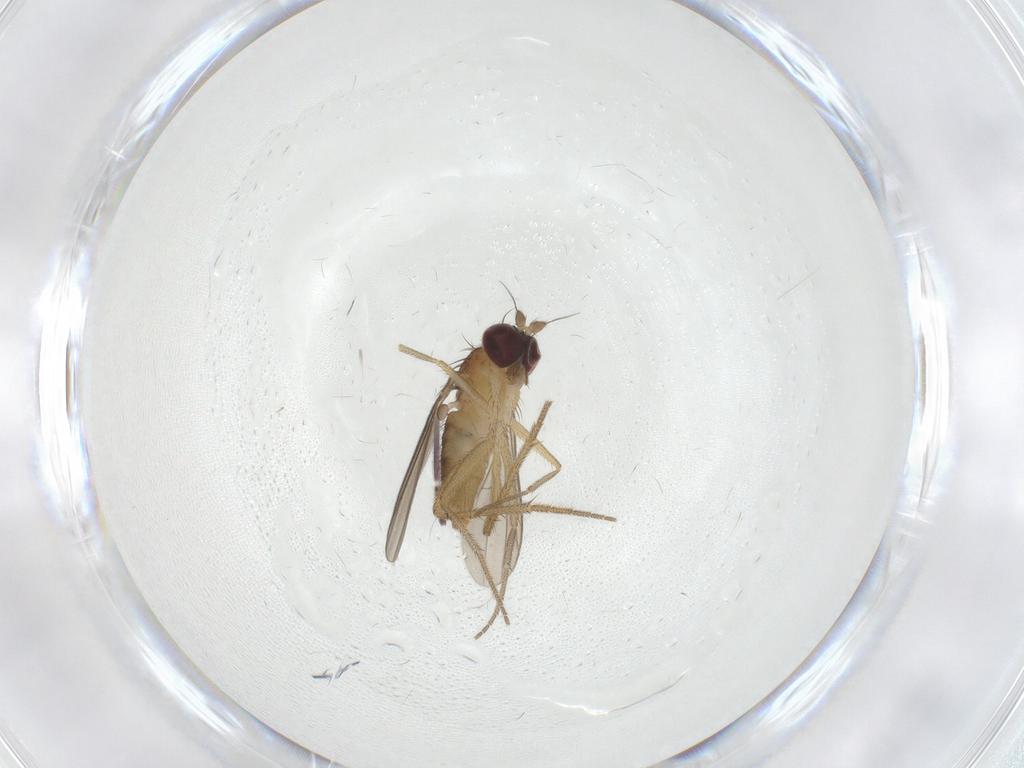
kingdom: Animalia
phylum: Arthropoda
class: Insecta
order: Diptera
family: Dolichopodidae
